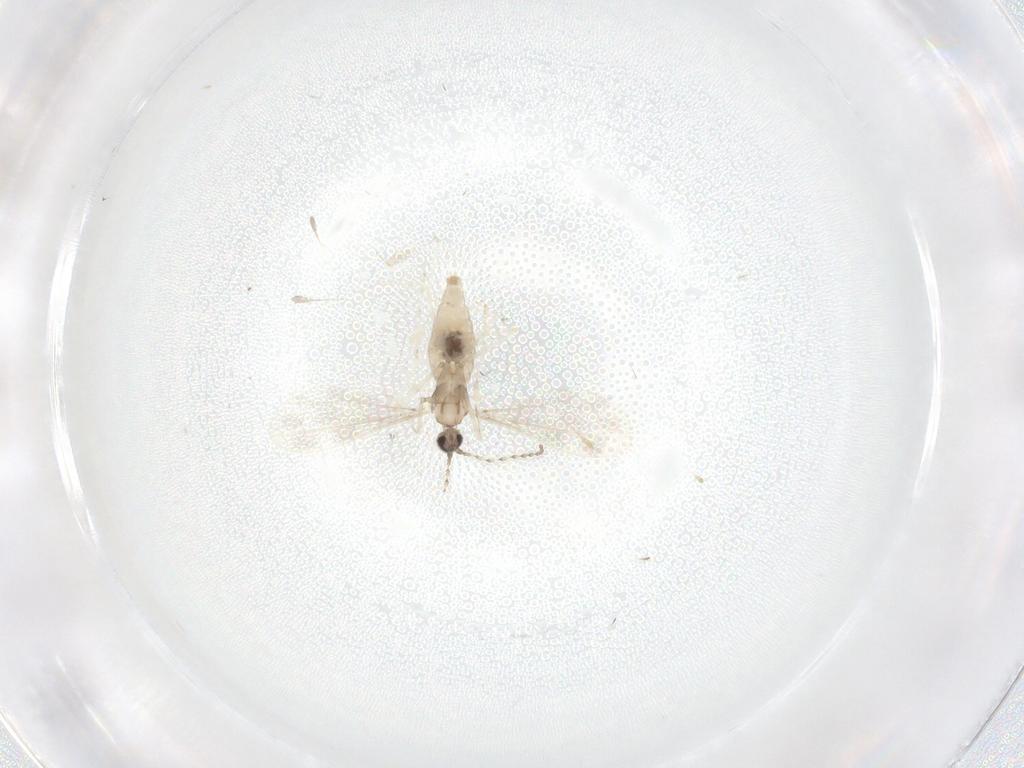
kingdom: Animalia
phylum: Arthropoda
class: Insecta
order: Diptera
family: Cecidomyiidae
